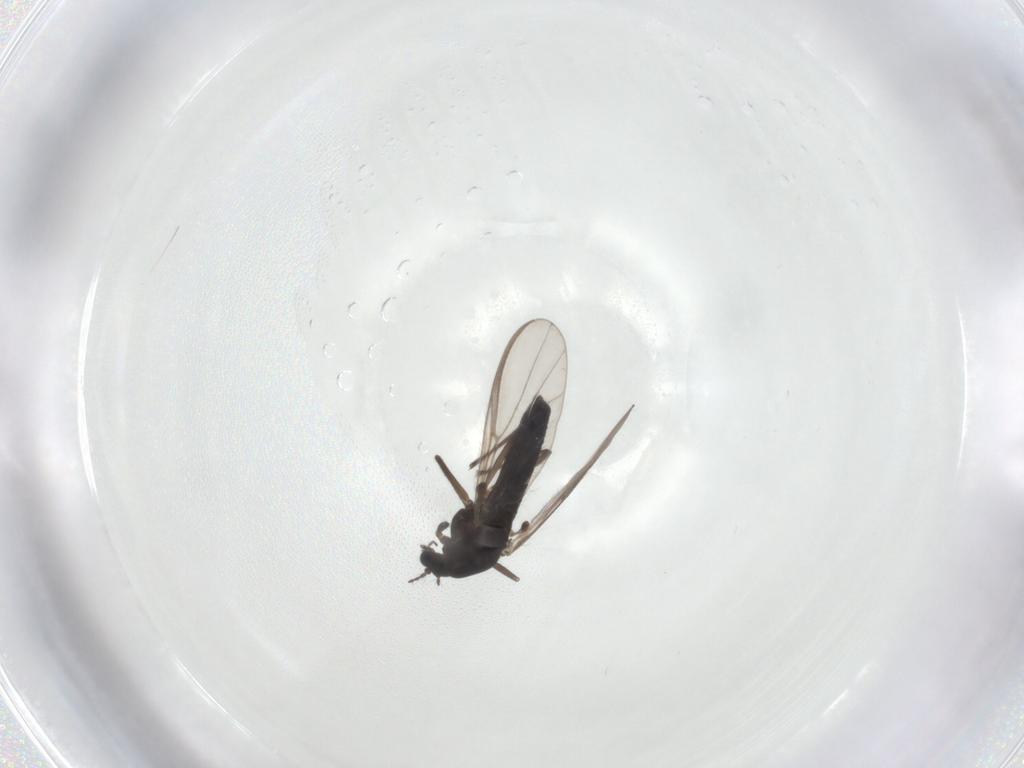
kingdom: Animalia
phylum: Arthropoda
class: Insecta
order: Diptera
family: Chironomidae
